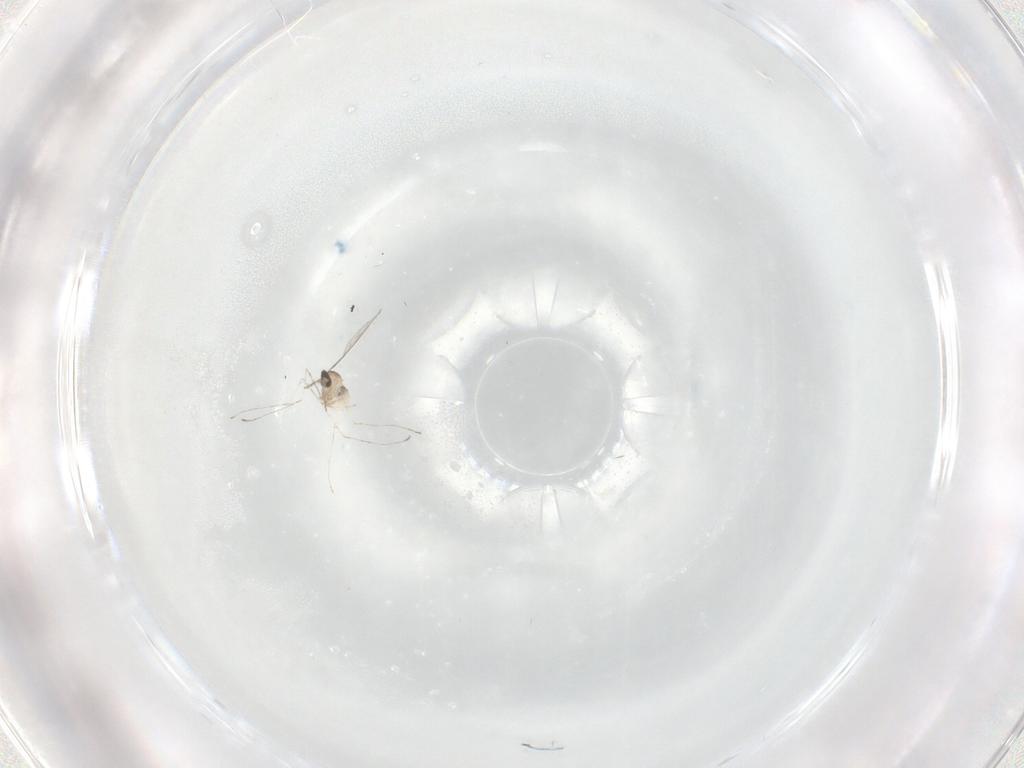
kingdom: Animalia
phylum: Arthropoda
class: Insecta
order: Diptera
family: Cecidomyiidae
